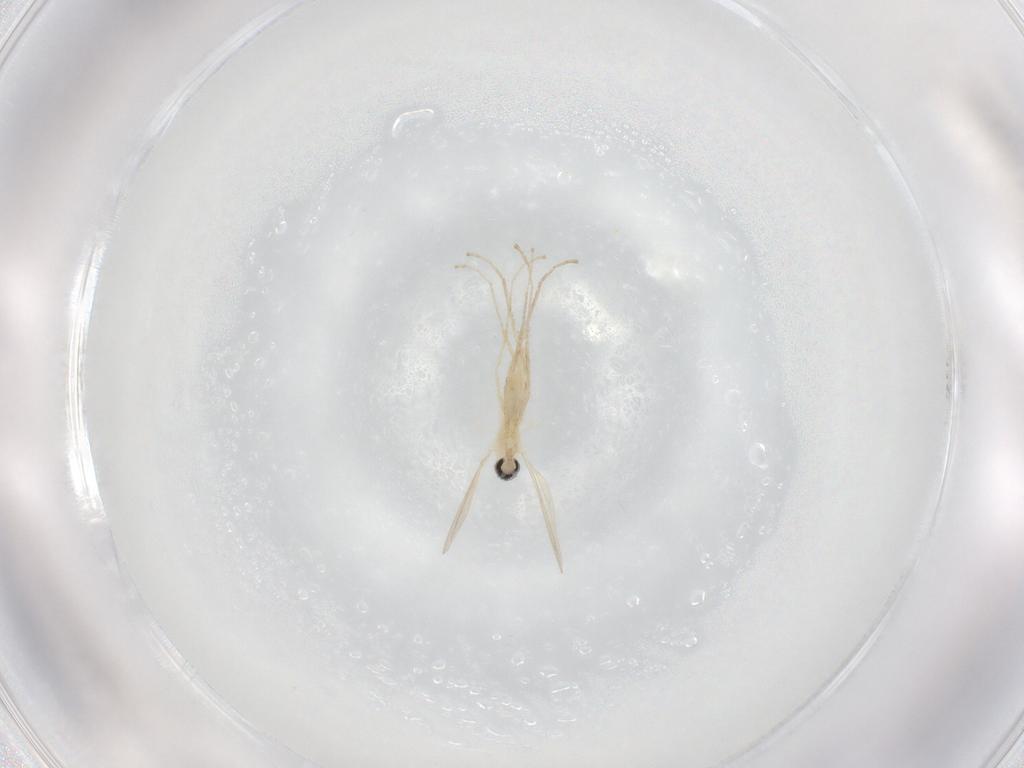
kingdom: Animalia
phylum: Arthropoda
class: Insecta
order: Diptera
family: Cecidomyiidae
